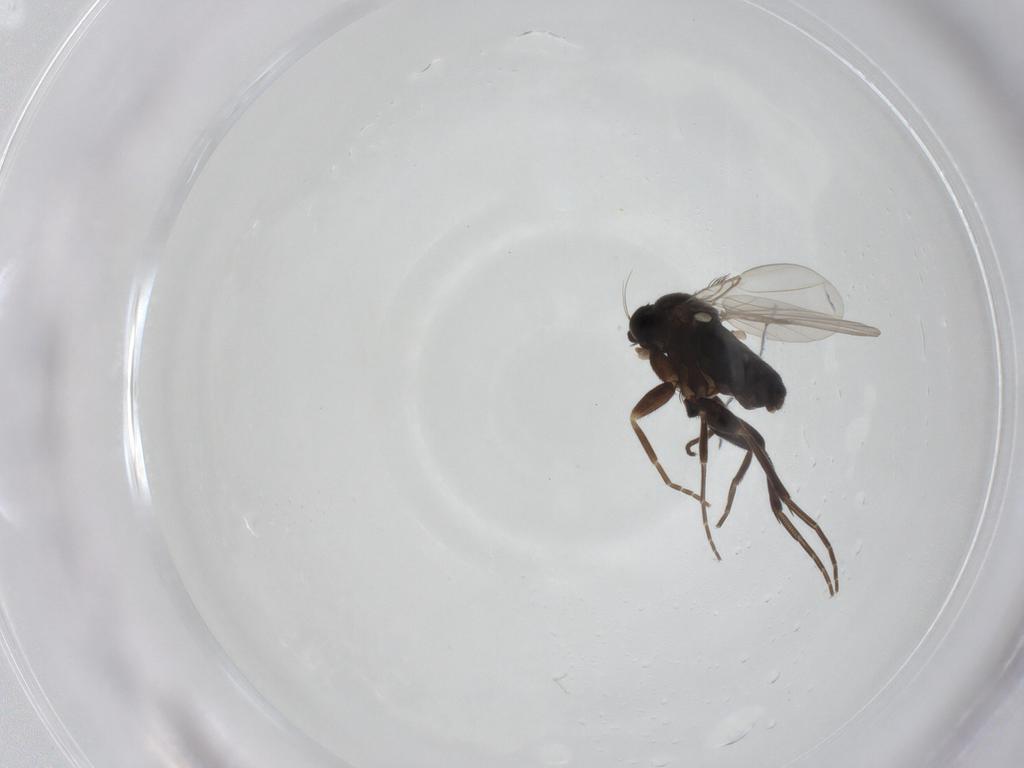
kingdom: Animalia
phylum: Arthropoda
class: Insecta
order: Diptera
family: Phoridae
